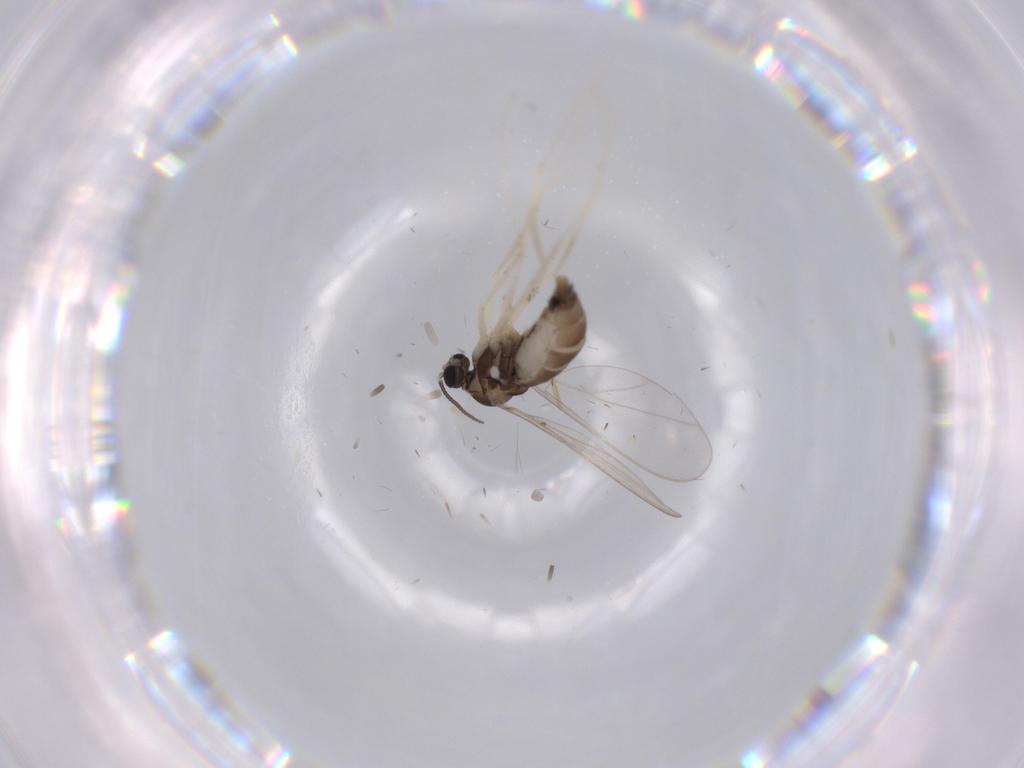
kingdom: Animalia
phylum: Arthropoda
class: Insecta
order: Diptera
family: Cecidomyiidae
